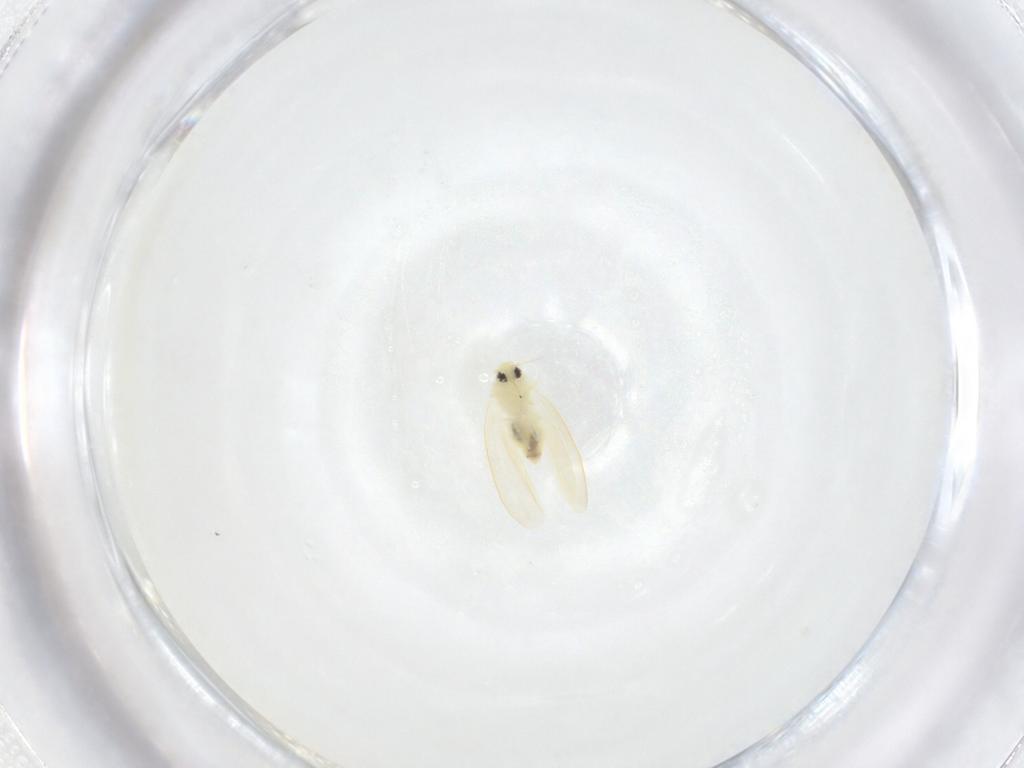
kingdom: Animalia
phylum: Arthropoda
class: Insecta
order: Hemiptera
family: Aleyrodidae
